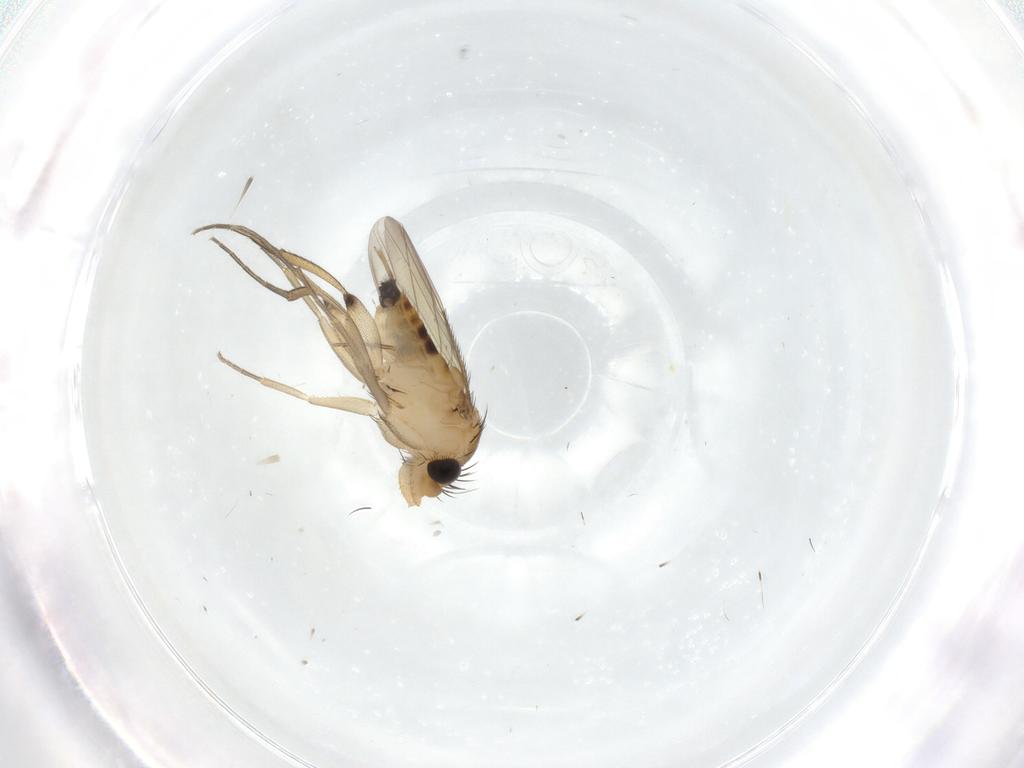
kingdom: Animalia
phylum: Arthropoda
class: Insecta
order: Diptera
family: Phoridae
